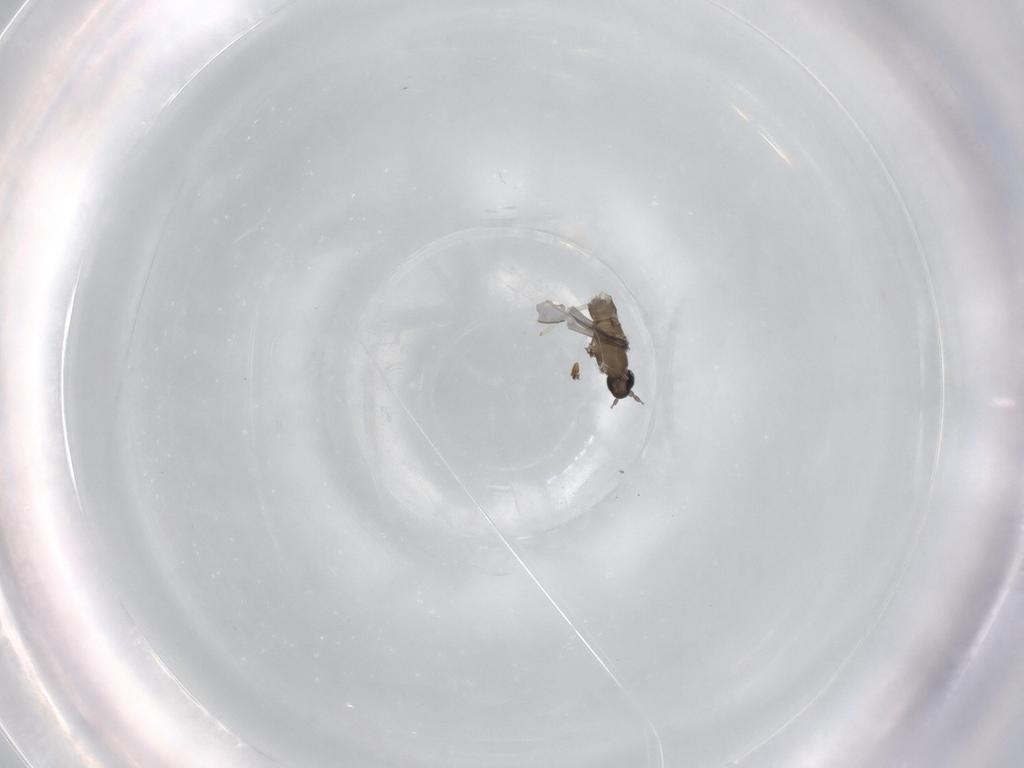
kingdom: Animalia
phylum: Arthropoda
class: Insecta
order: Diptera
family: Cecidomyiidae
